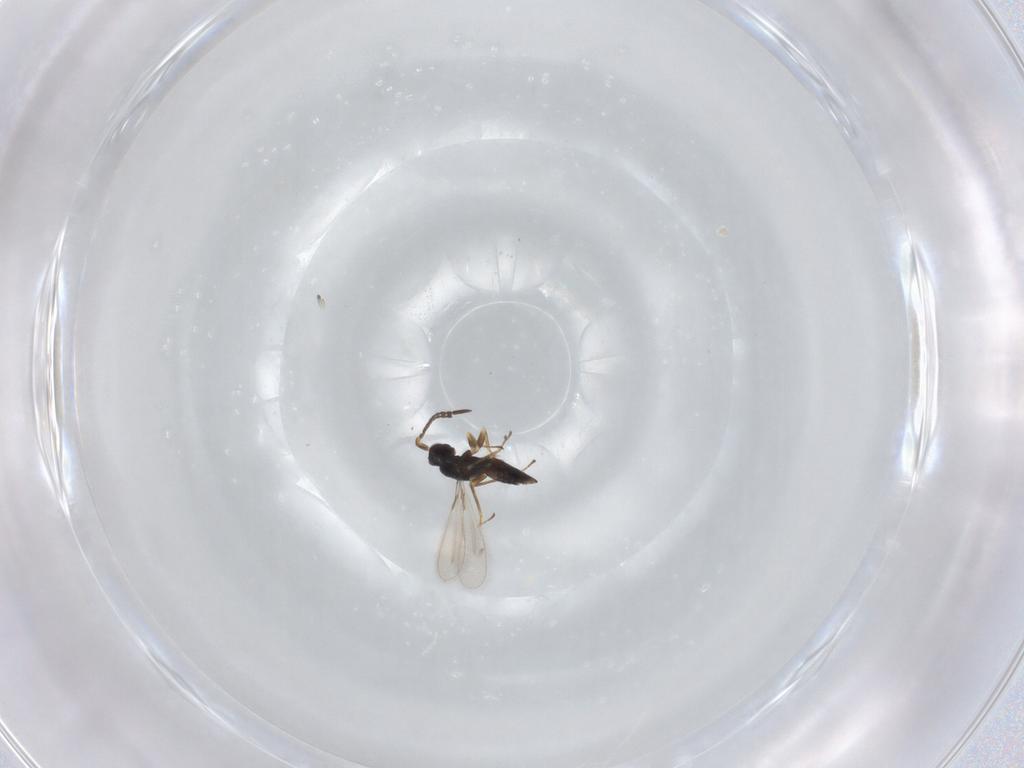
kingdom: Animalia
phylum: Arthropoda
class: Insecta
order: Hymenoptera
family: Mymaridae
